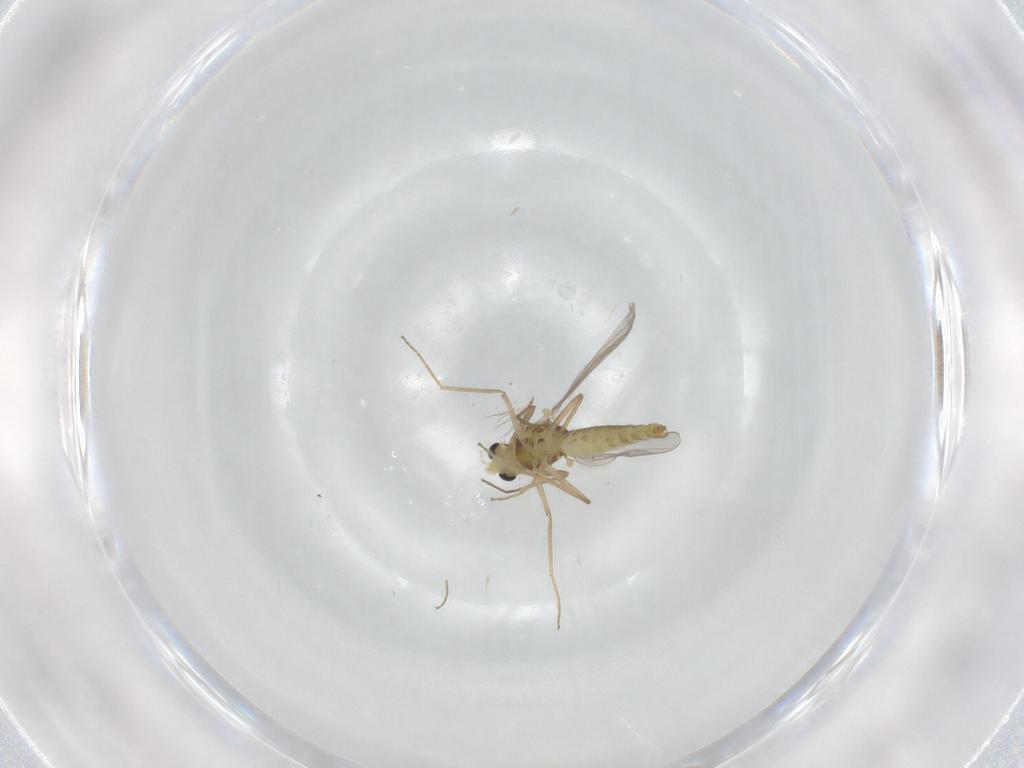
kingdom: Animalia
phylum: Arthropoda
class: Insecta
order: Diptera
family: Chironomidae
